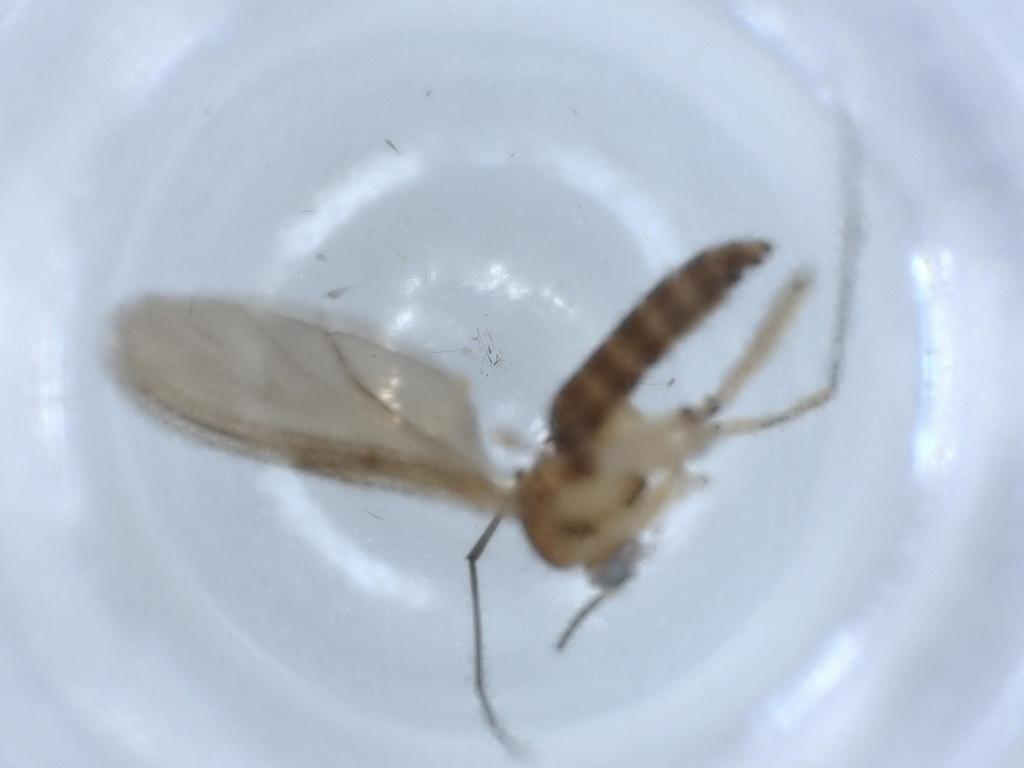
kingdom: Animalia
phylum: Arthropoda
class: Insecta
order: Diptera
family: Sciaridae
